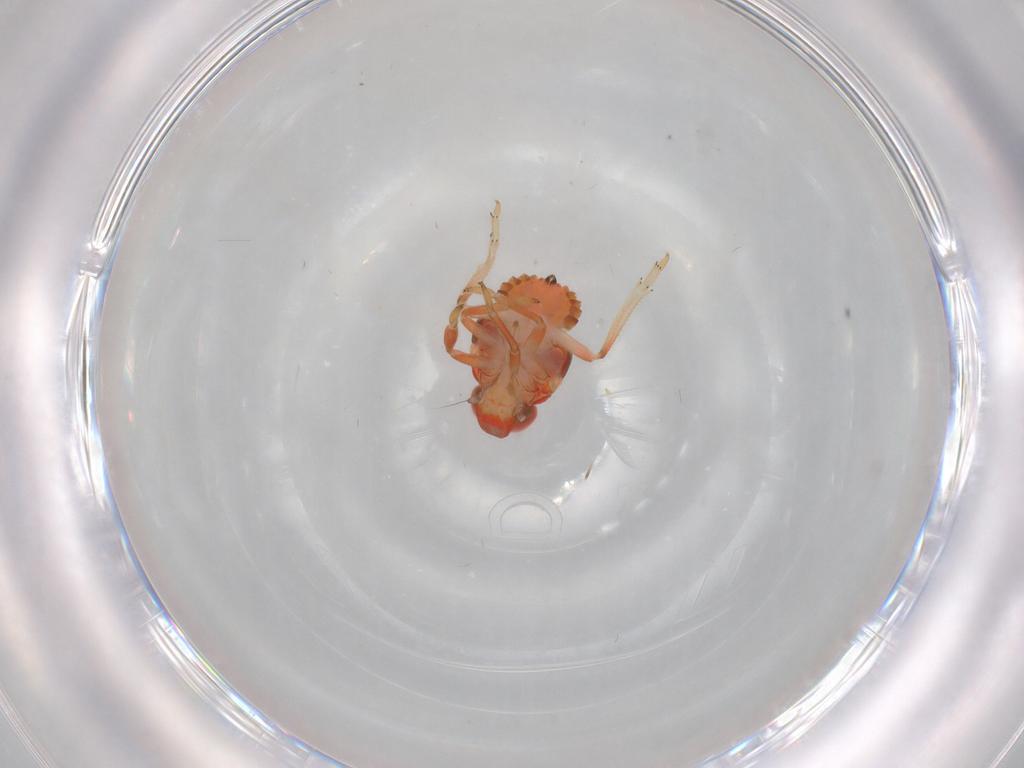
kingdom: Animalia
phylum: Arthropoda
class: Insecta
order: Hemiptera
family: Issidae
